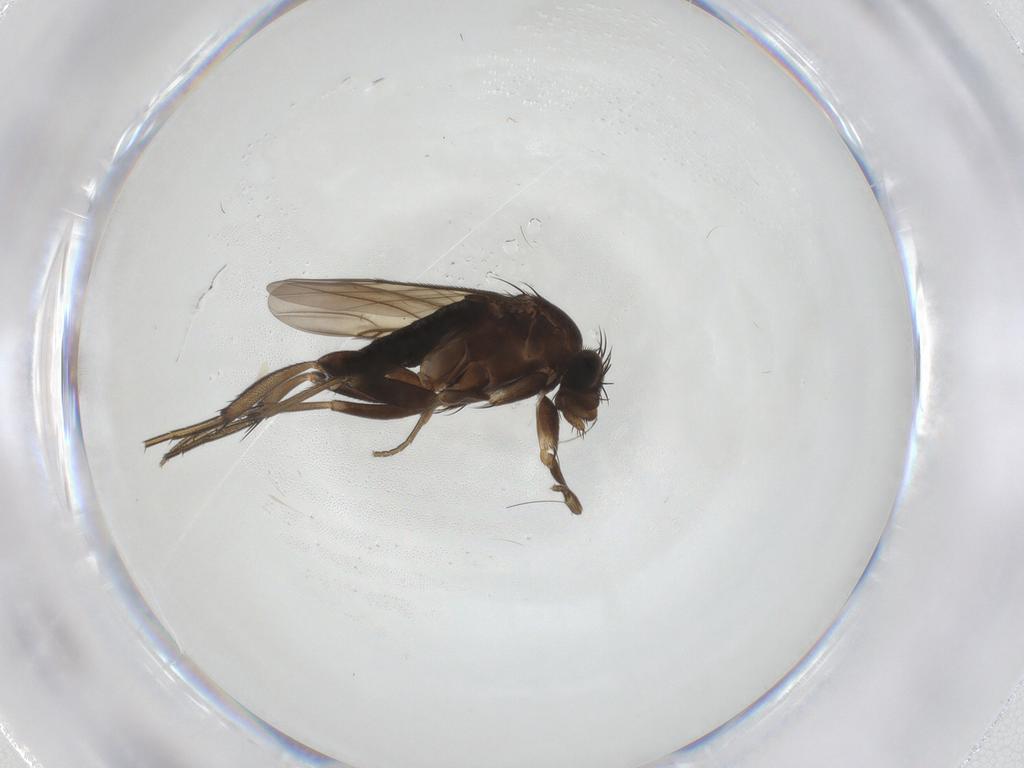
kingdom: Animalia
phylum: Arthropoda
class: Insecta
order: Diptera
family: Phoridae
